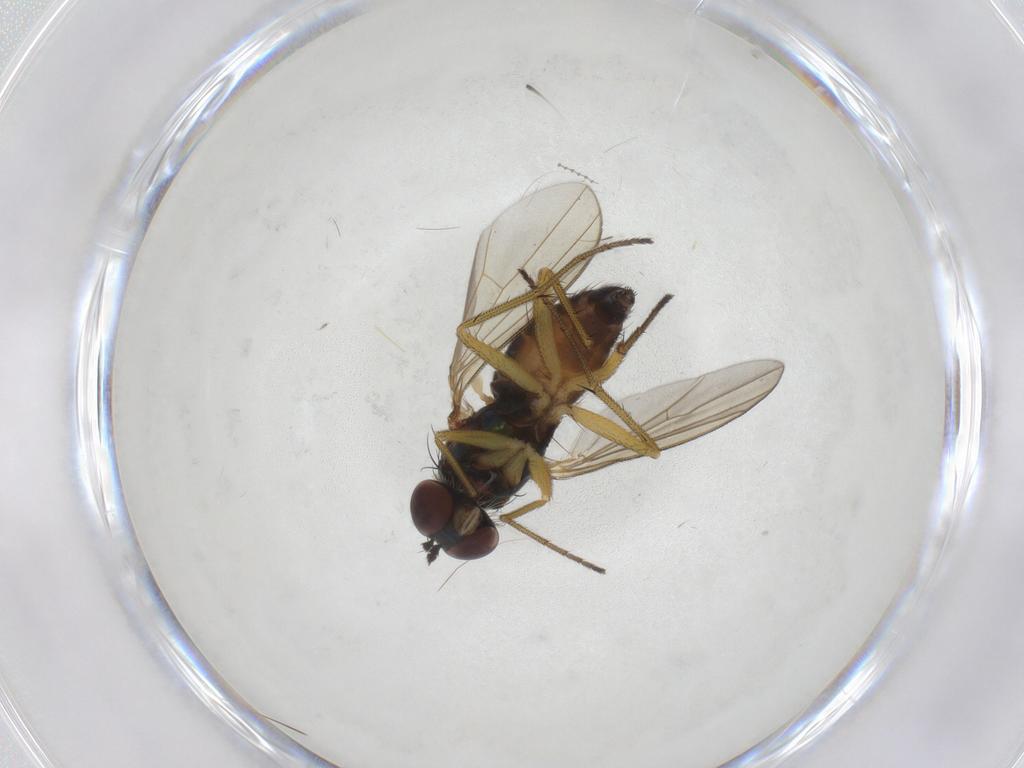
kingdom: Animalia
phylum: Arthropoda
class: Insecta
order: Diptera
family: Dolichopodidae
